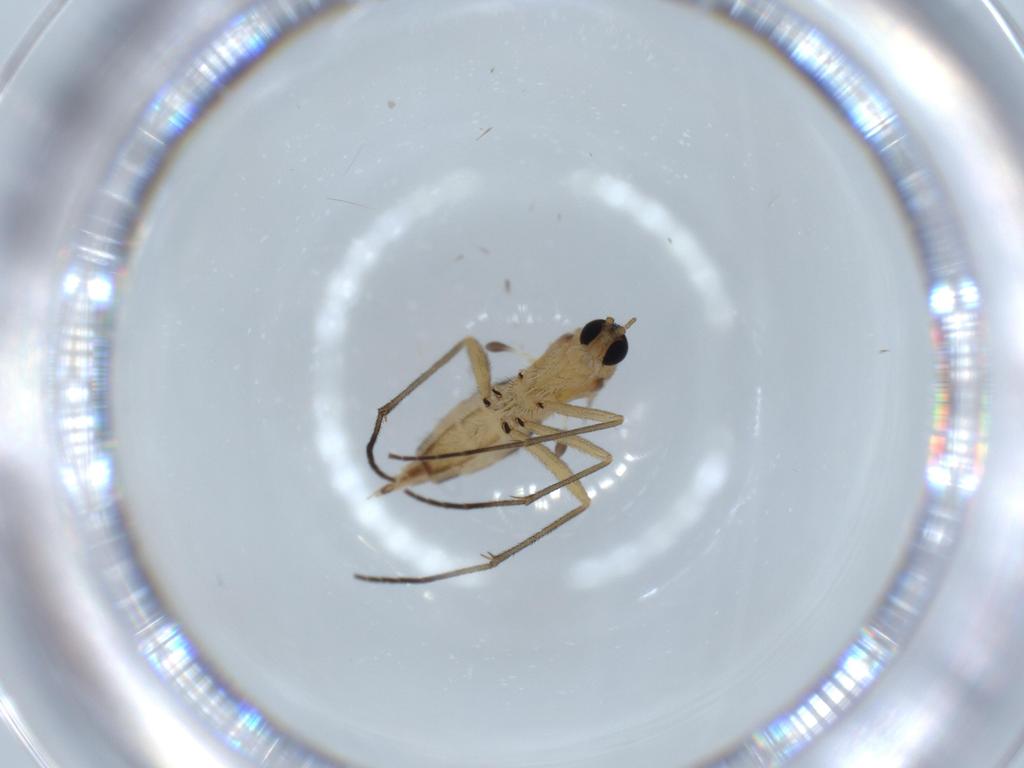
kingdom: Animalia
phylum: Arthropoda
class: Insecta
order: Diptera
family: Sciaridae
